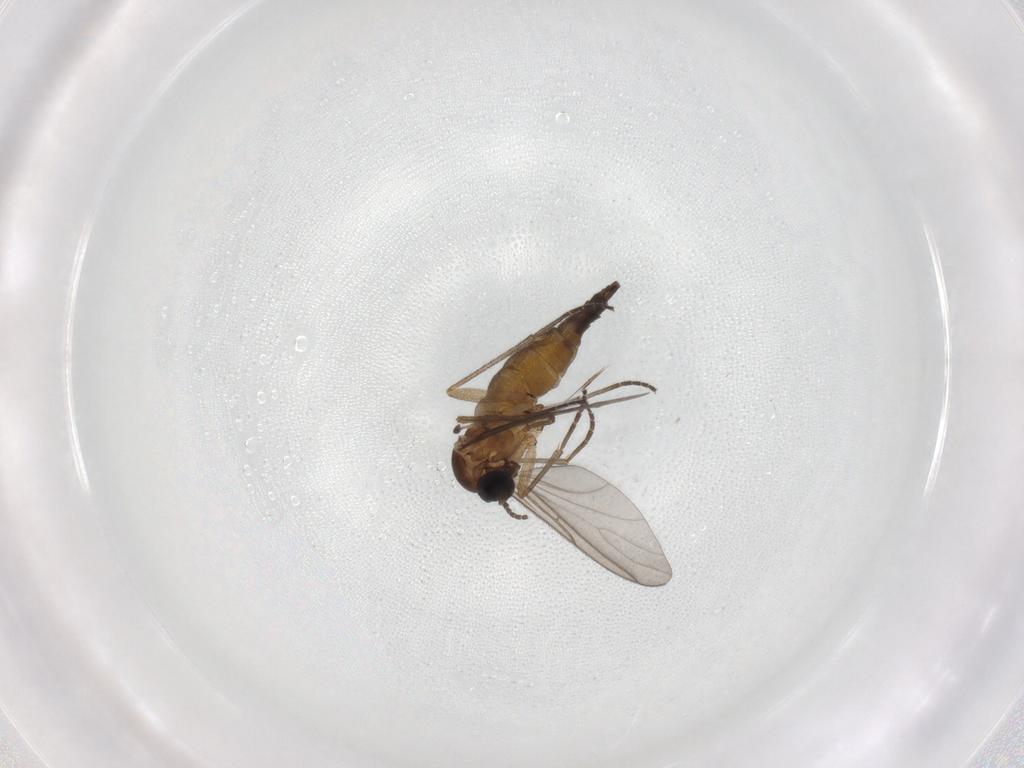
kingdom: Animalia
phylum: Arthropoda
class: Insecta
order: Diptera
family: Sciaridae
